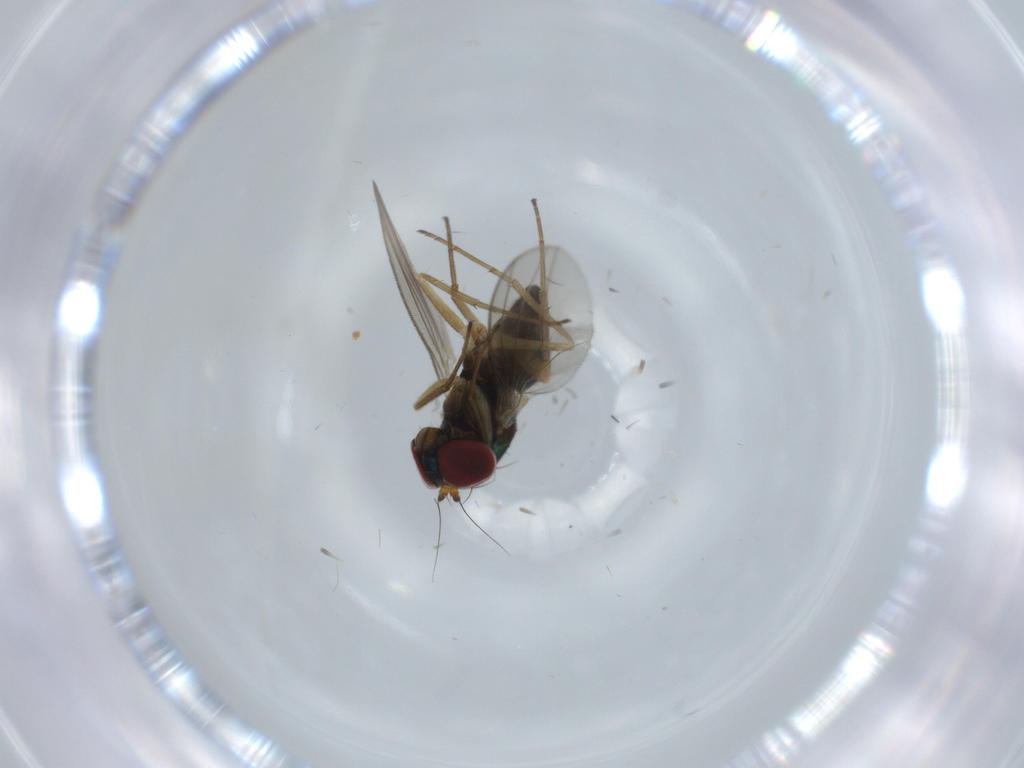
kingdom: Animalia
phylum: Arthropoda
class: Insecta
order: Diptera
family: Dolichopodidae
